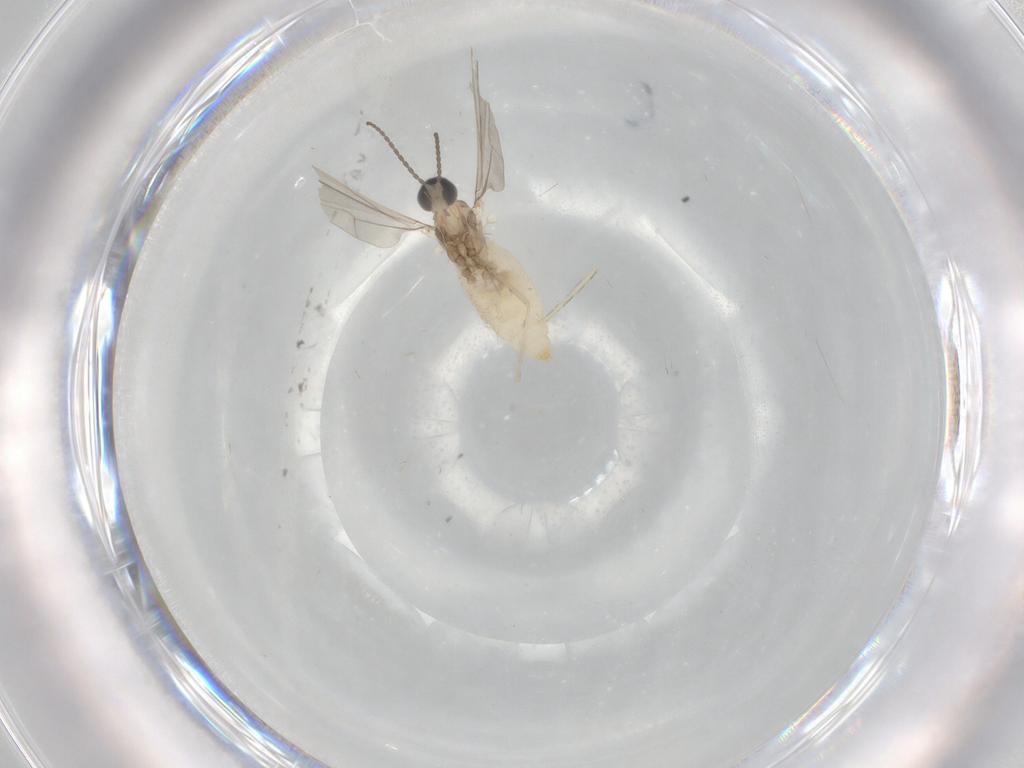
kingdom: Animalia
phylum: Arthropoda
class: Insecta
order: Diptera
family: Cecidomyiidae
